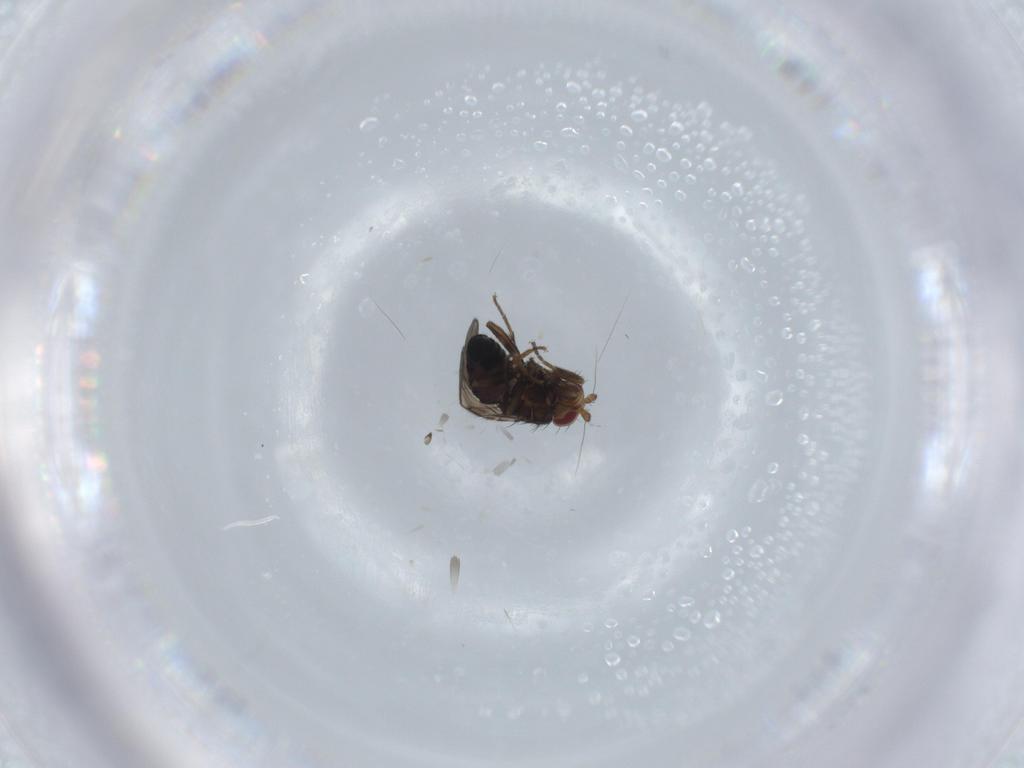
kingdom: Animalia
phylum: Arthropoda
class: Insecta
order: Diptera
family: Sphaeroceridae
